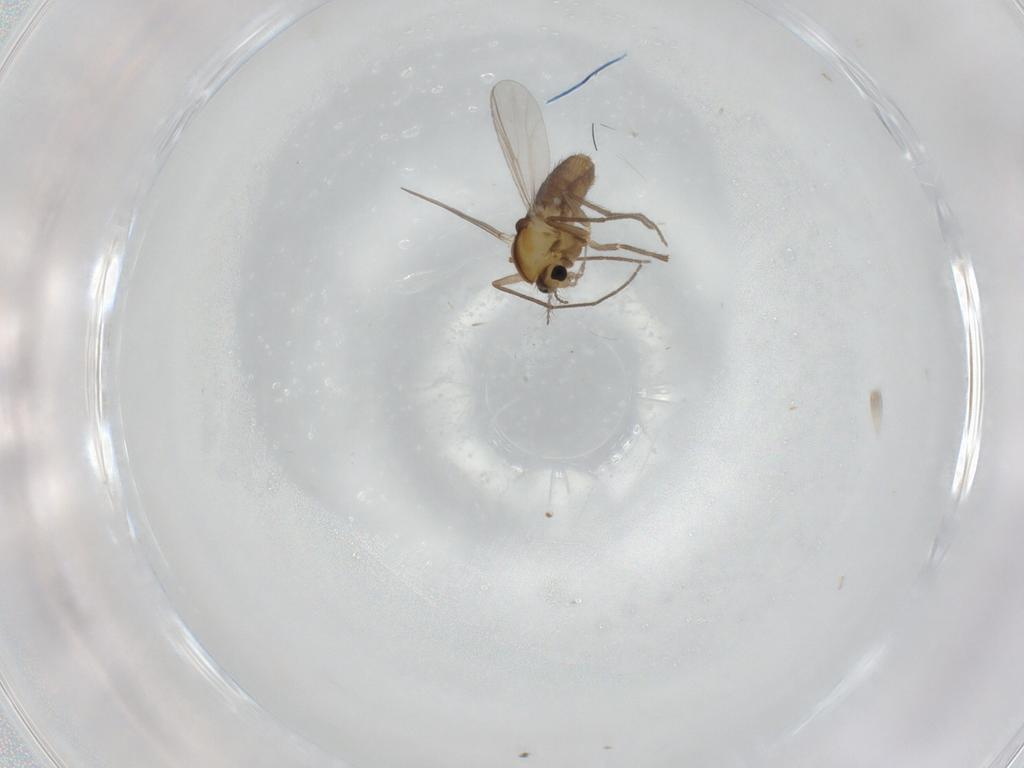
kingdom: Animalia
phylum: Arthropoda
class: Insecta
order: Diptera
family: Chironomidae
